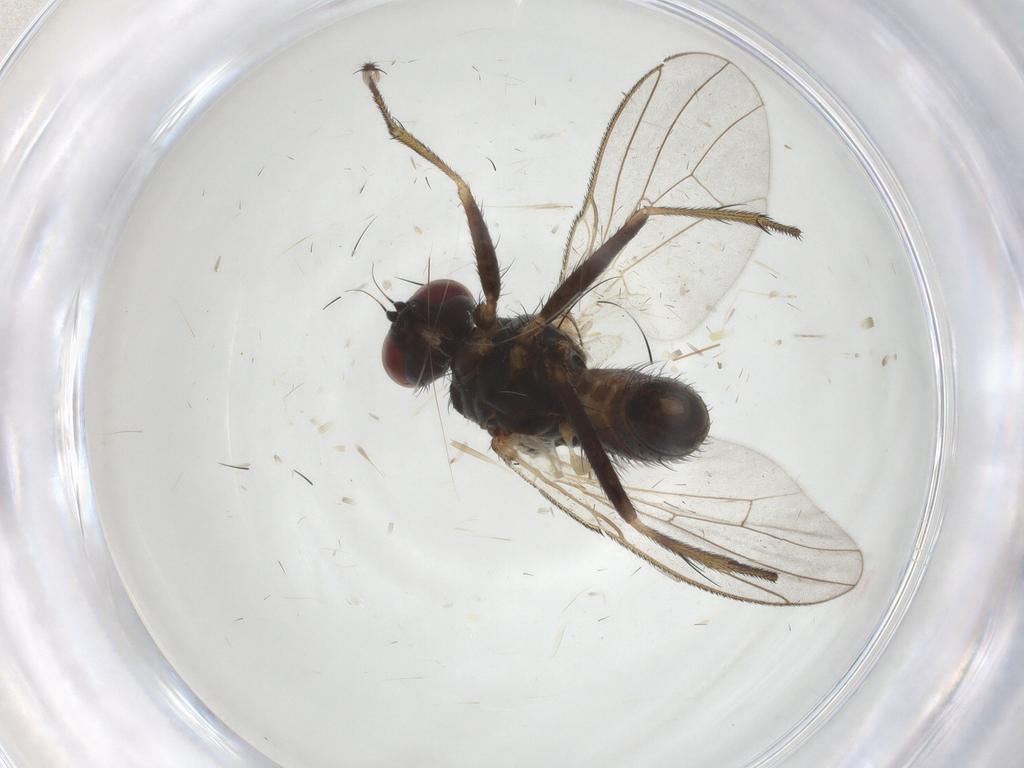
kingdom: Animalia
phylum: Arthropoda
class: Insecta
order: Diptera
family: Muscidae
